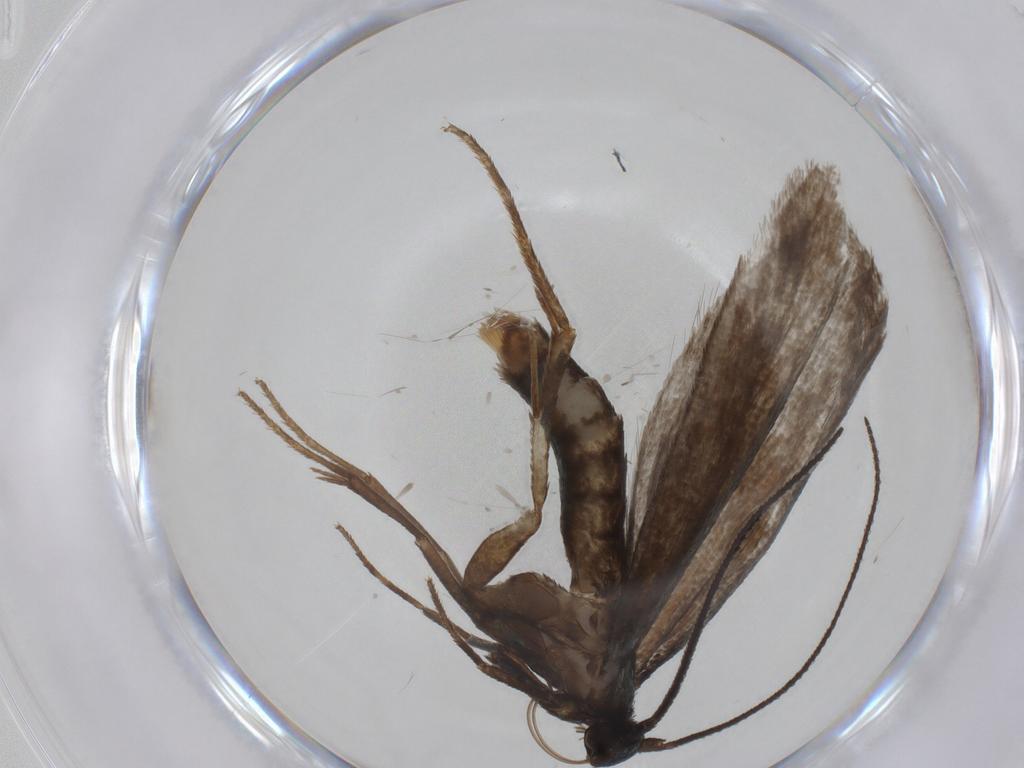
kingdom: Animalia
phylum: Arthropoda
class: Insecta
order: Lepidoptera
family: Argyresthiidae
